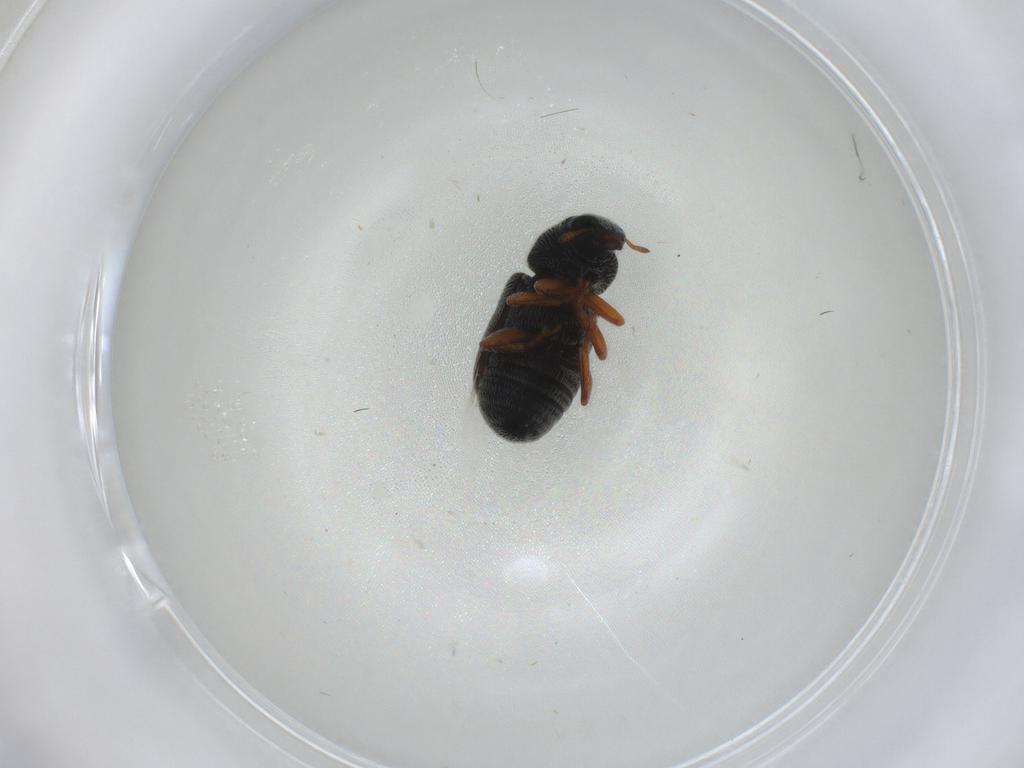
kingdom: Animalia
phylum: Arthropoda
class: Insecta
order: Coleoptera
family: Anthribidae
